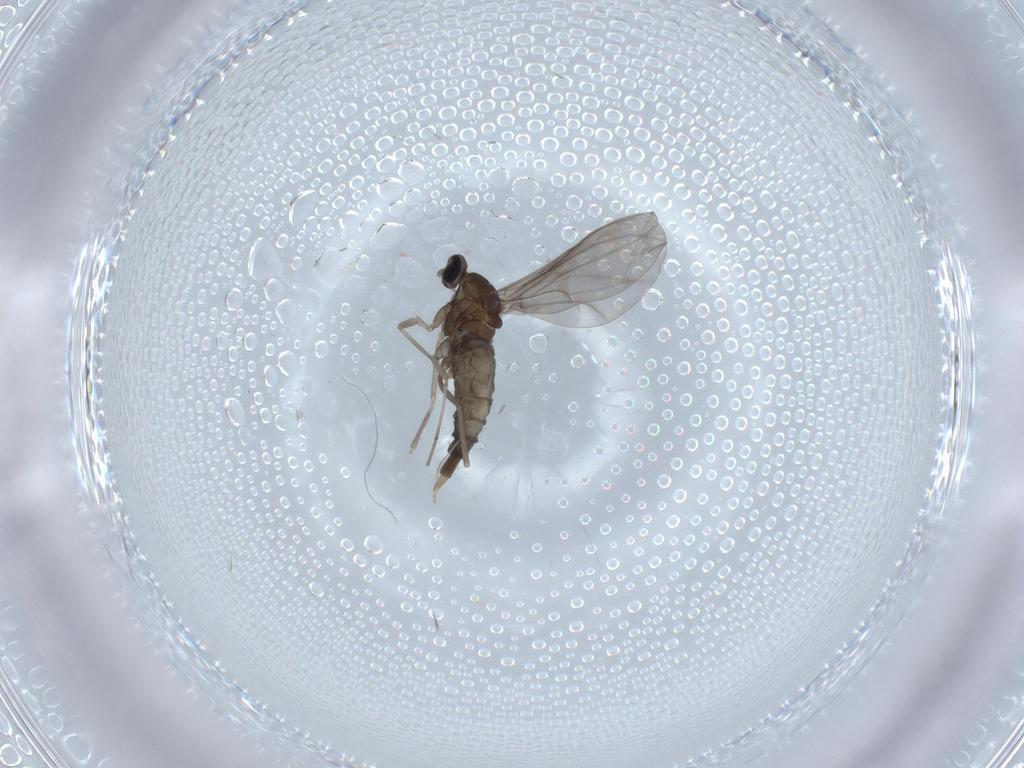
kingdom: Animalia
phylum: Arthropoda
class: Insecta
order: Diptera
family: Cecidomyiidae
